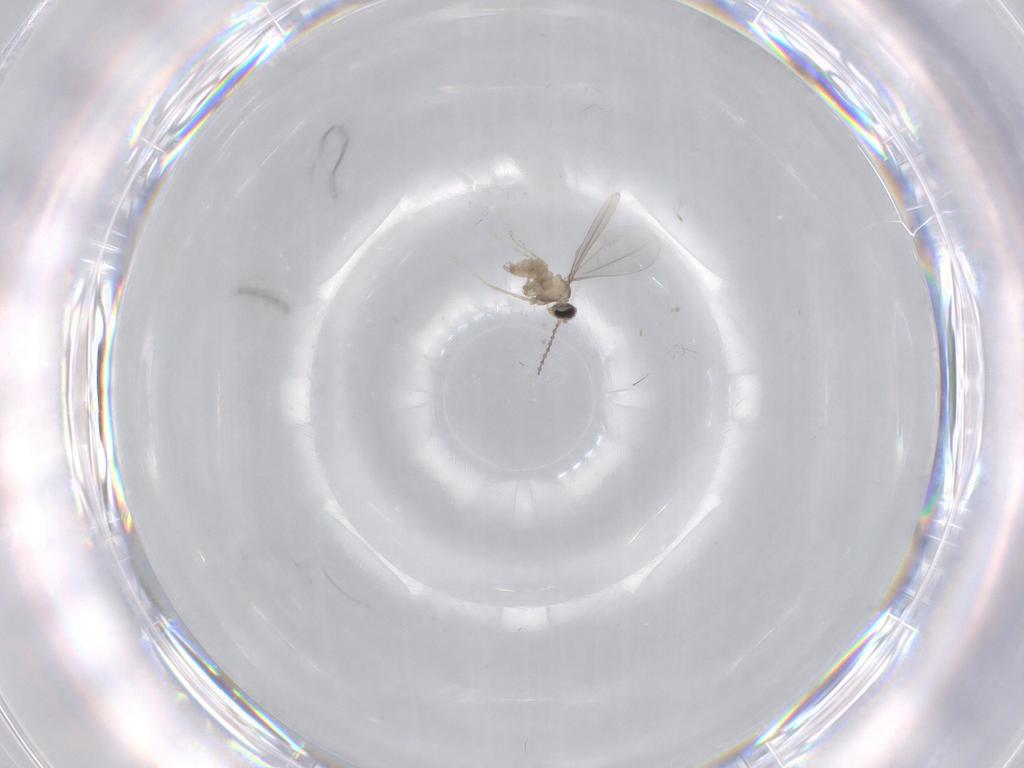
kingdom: Animalia
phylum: Arthropoda
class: Insecta
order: Diptera
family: Cecidomyiidae
